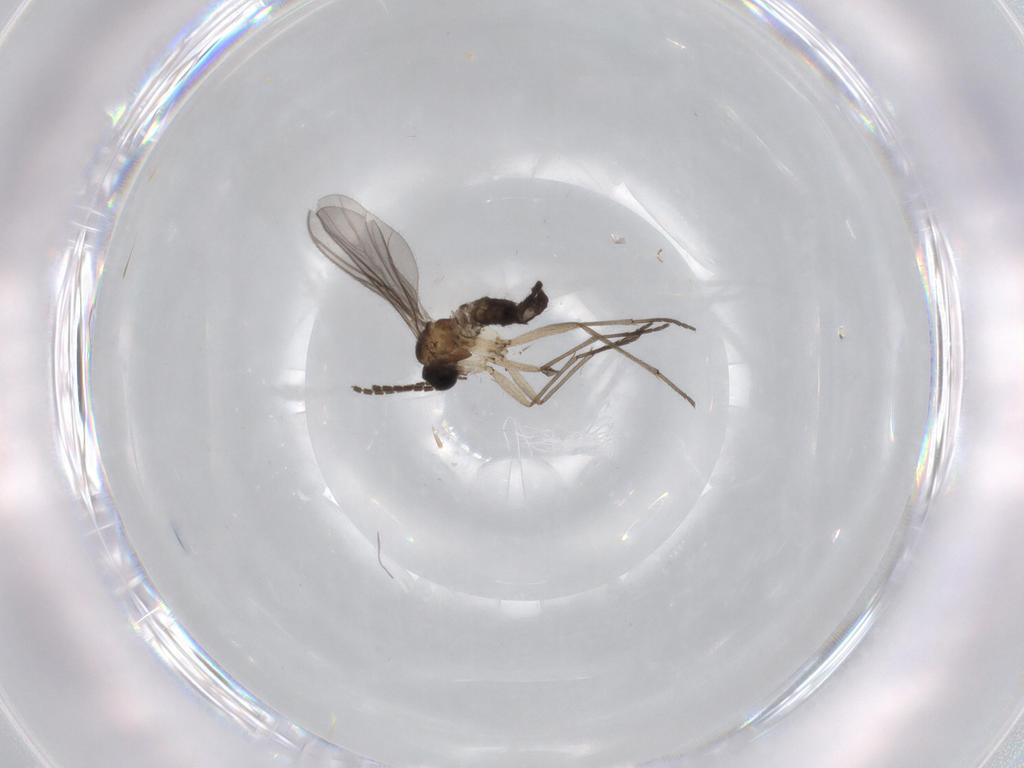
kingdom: Animalia
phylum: Arthropoda
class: Insecta
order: Diptera
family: Sciaridae
